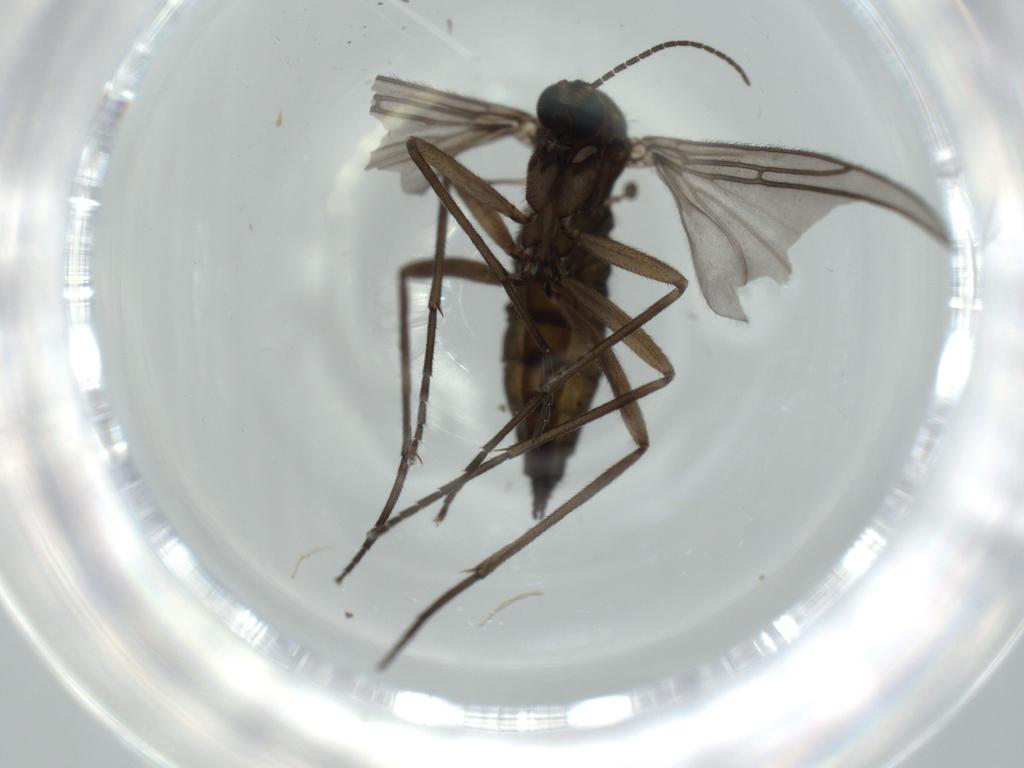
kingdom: Animalia
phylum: Arthropoda
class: Insecta
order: Diptera
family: Sciaridae
